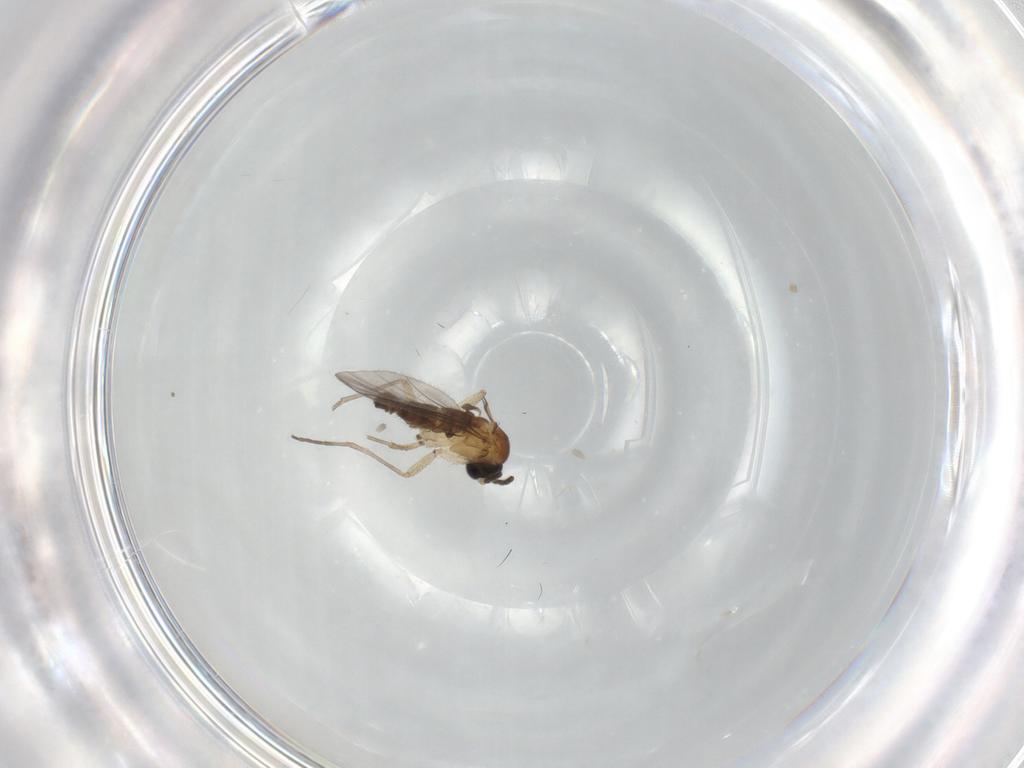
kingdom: Animalia
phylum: Arthropoda
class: Insecta
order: Diptera
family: Sciaridae
